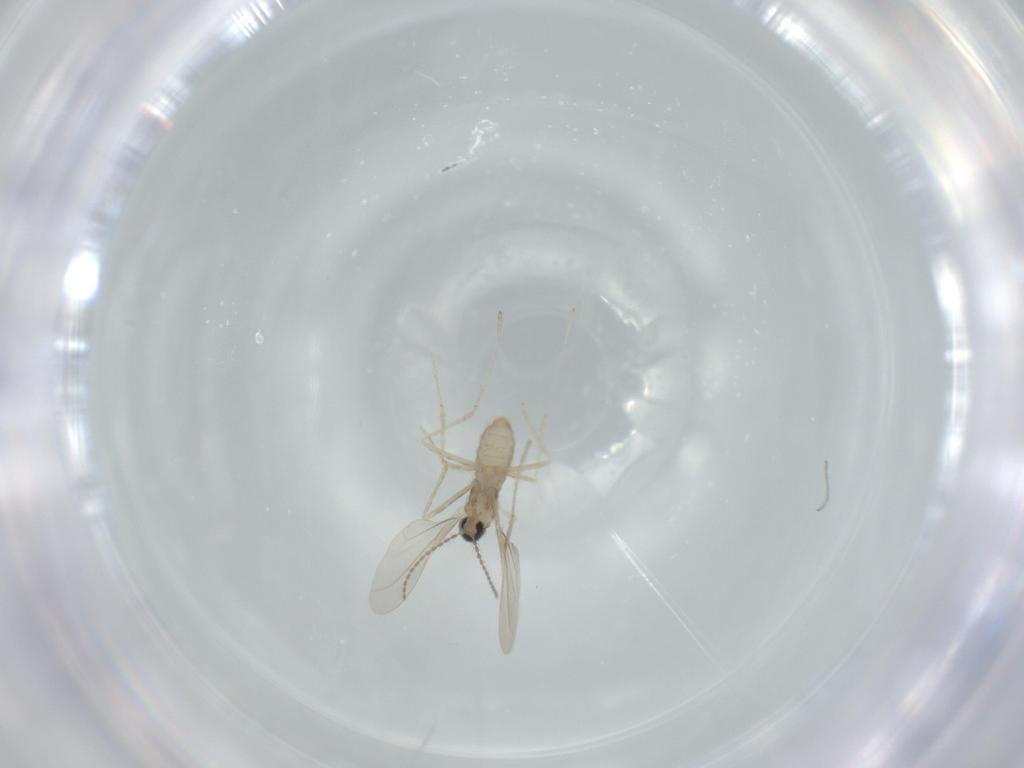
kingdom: Animalia
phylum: Arthropoda
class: Insecta
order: Diptera
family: Cecidomyiidae
